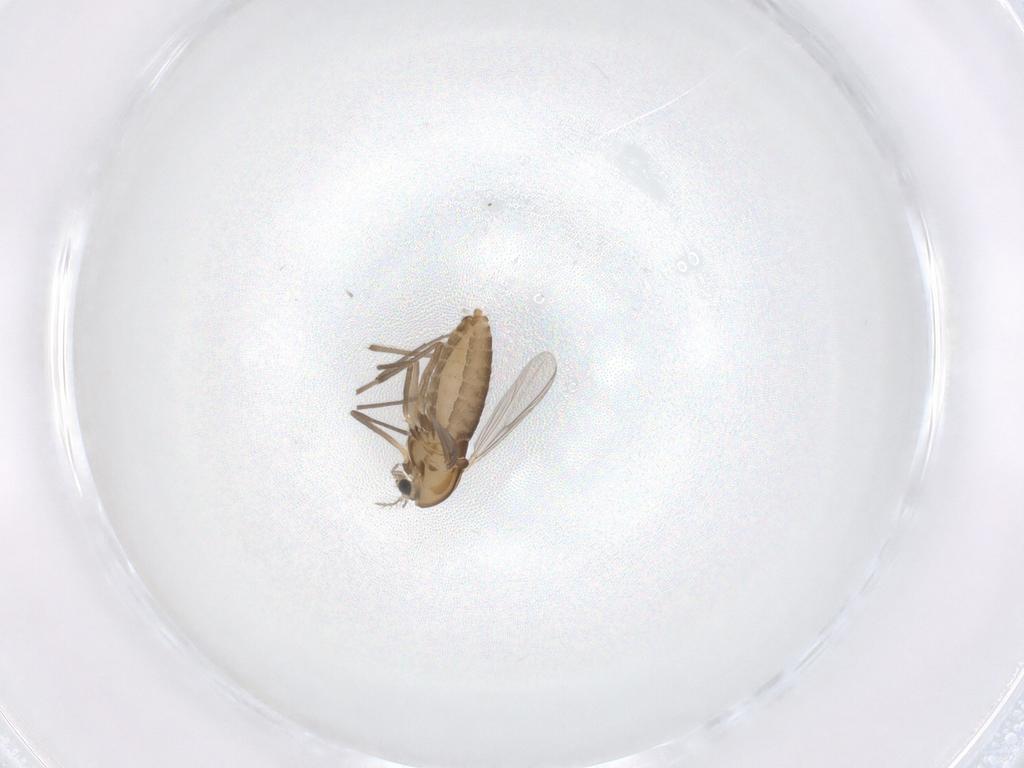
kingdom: Animalia
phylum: Arthropoda
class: Insecta
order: Diptera
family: Chironomidae
